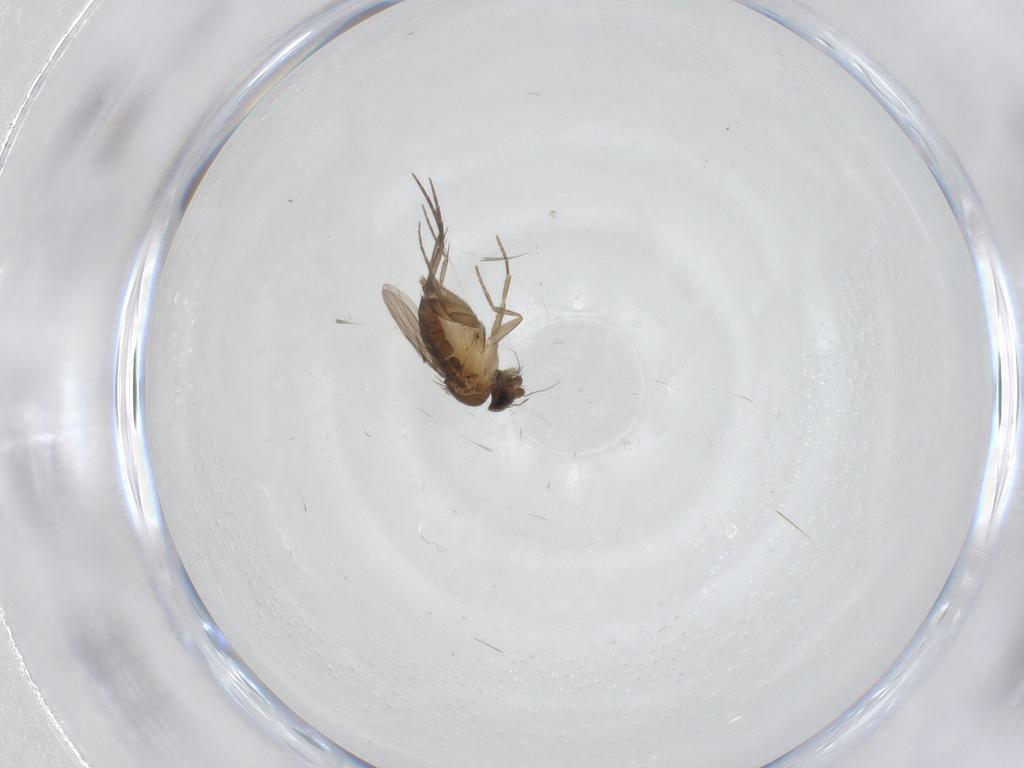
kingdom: Animalia
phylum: Arthropoda
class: Insecta
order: Diptera
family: Phoridae
